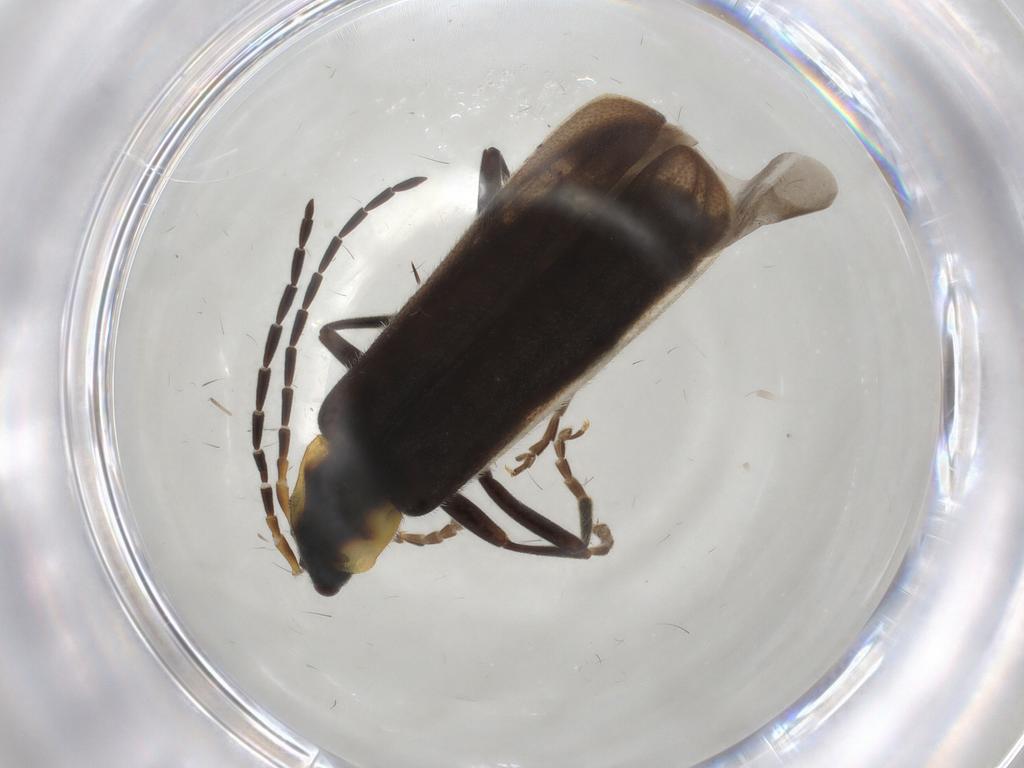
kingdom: Animalia
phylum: Arthropoda
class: Insecta
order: Coleoptera
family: Cantharidae
